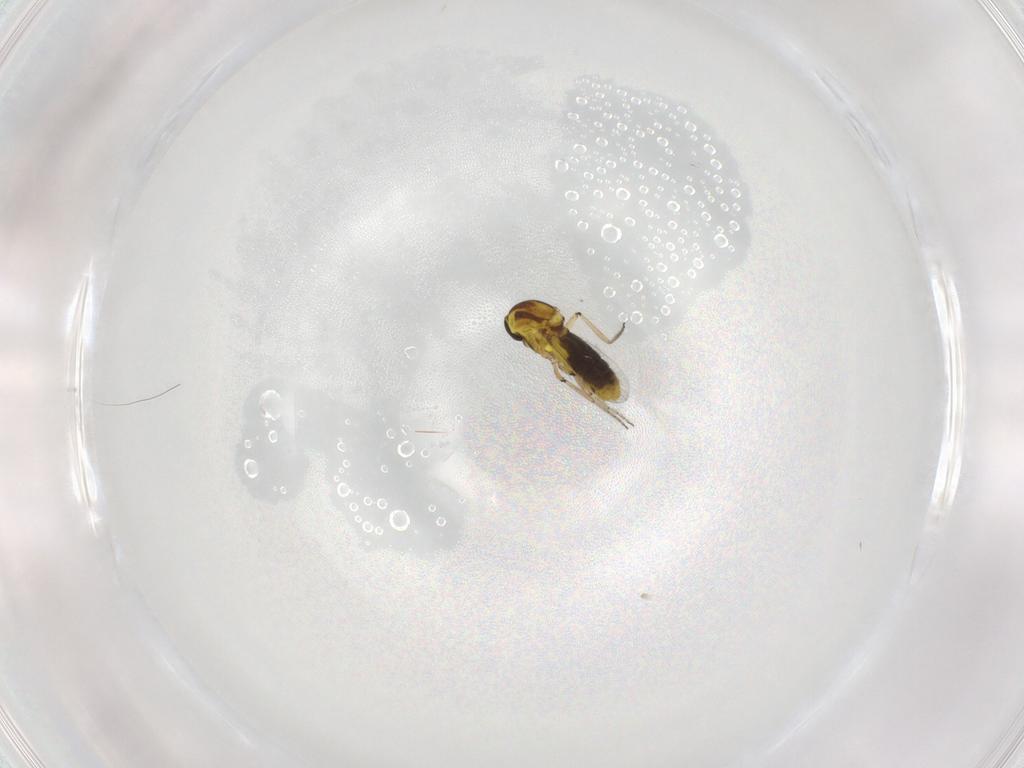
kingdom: Animalia
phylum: Arthropoda
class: Insecta
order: Diptera
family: Ceratopogonidae
